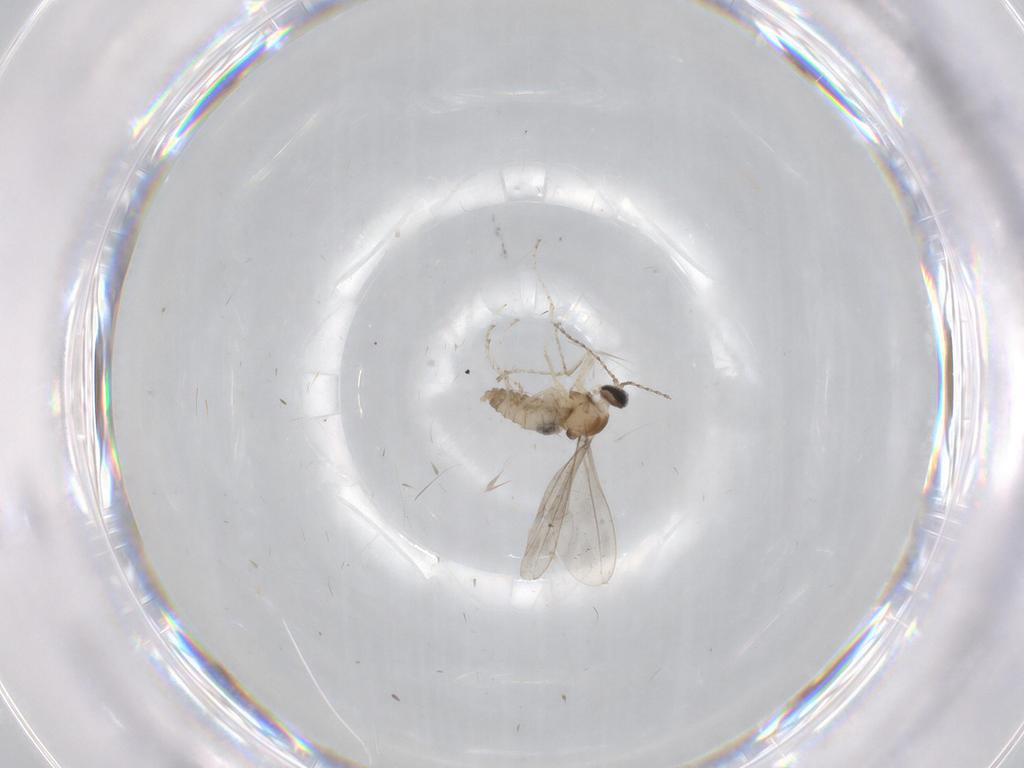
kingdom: Animalia
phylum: Arthropoda
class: Insecta
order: Diptera
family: Cecidomyiidae
